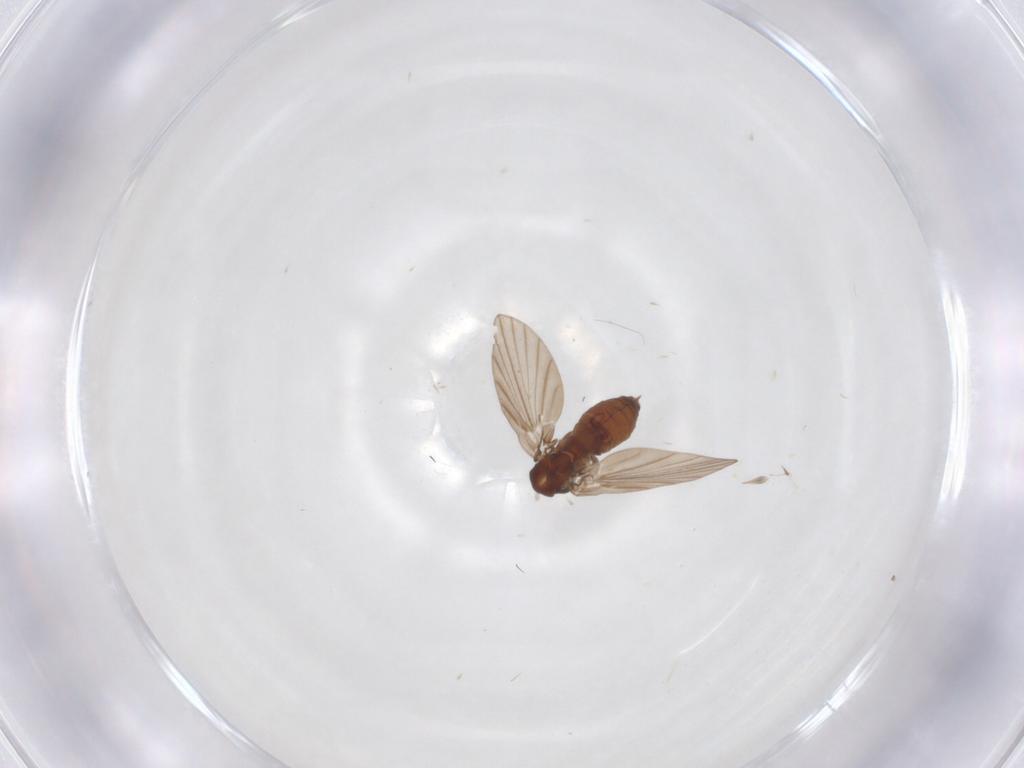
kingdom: Animalia
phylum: Arthropoda
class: Insecta
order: Diptera
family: Psychodidae
